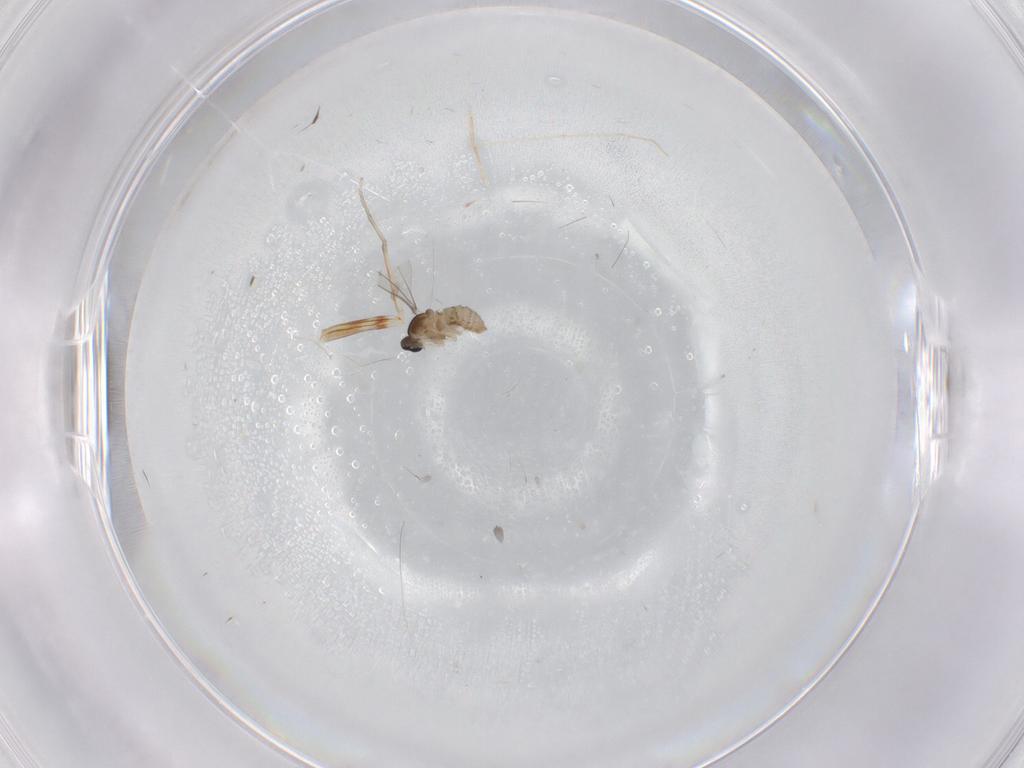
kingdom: Animalia
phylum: Arthropoda
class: Insecta
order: Diptera
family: Cecidomyiidae
